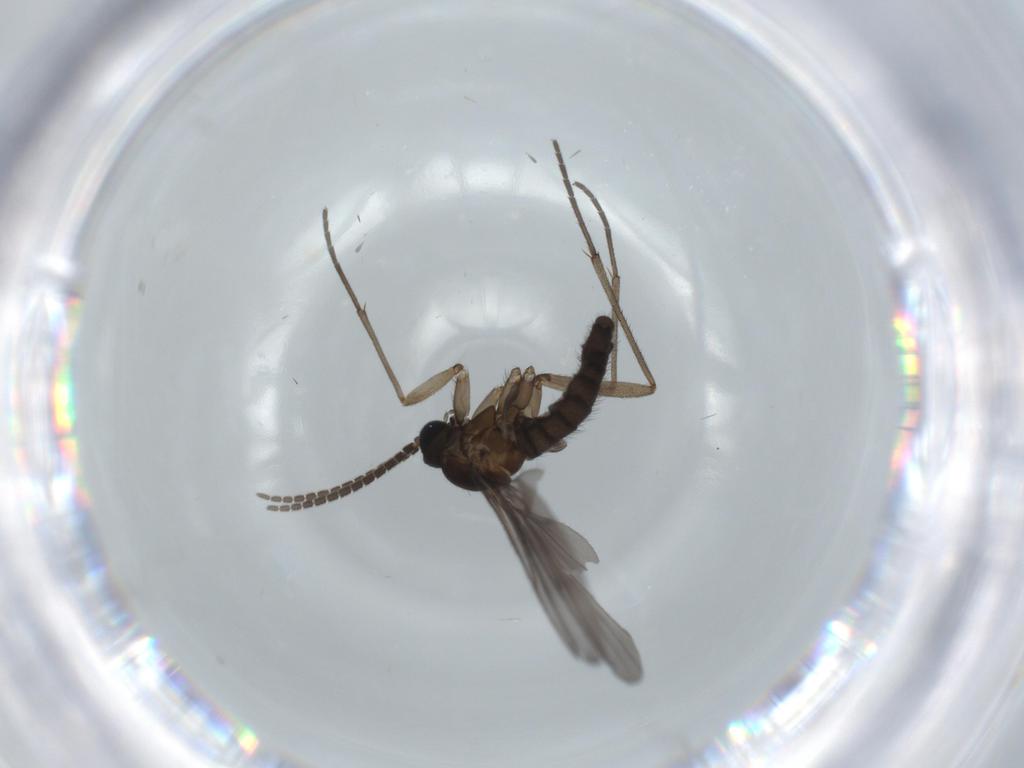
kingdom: Animalia
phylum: Arthropoda
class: Insecta
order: Diptera
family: Sciaridae
